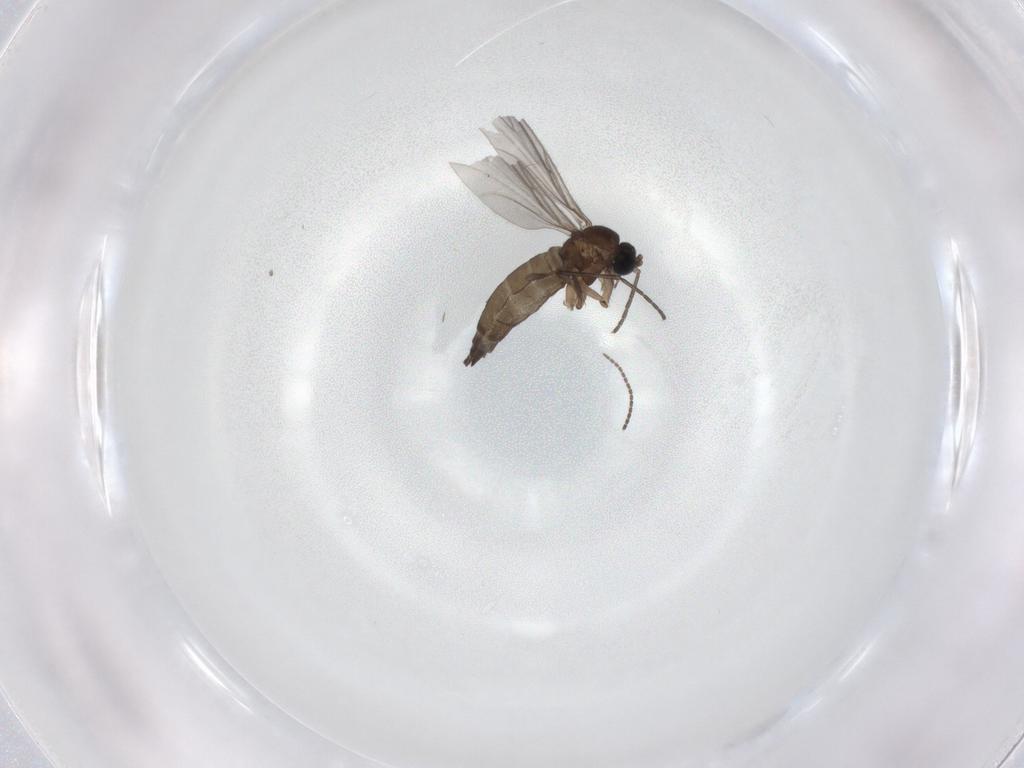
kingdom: Animalia
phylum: Arthropoda
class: Insecta
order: Diptera
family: Sciaridae
